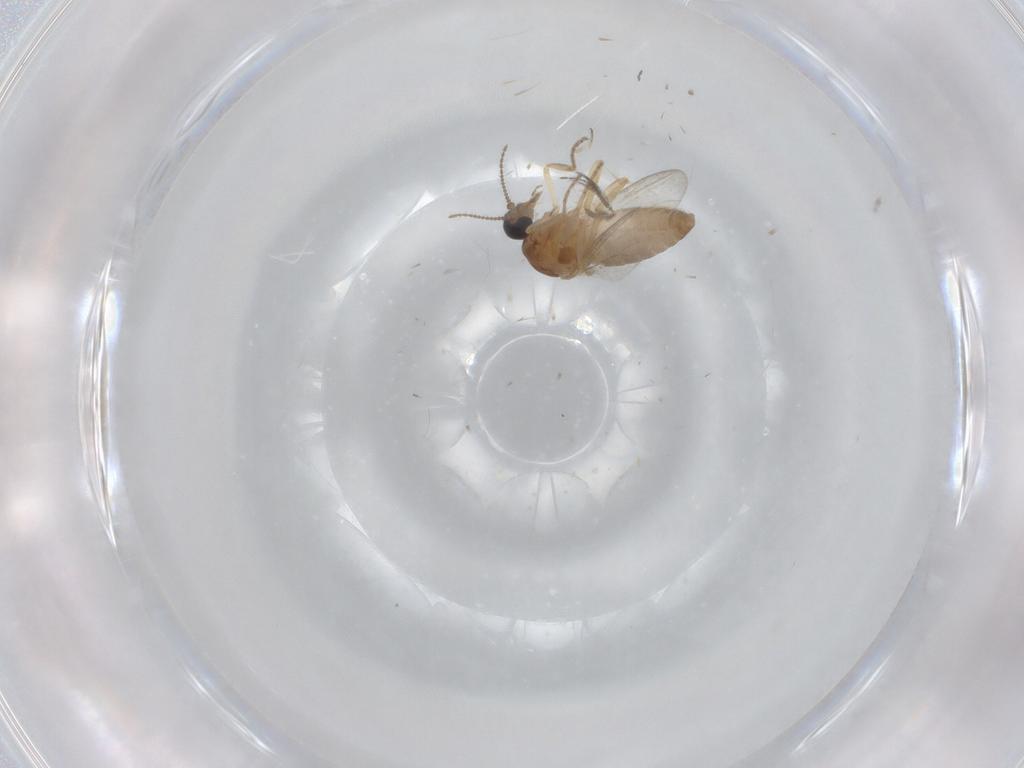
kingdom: Animalia
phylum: Arthropoda
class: Insecta
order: Diptera
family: Ceratopogonidae
